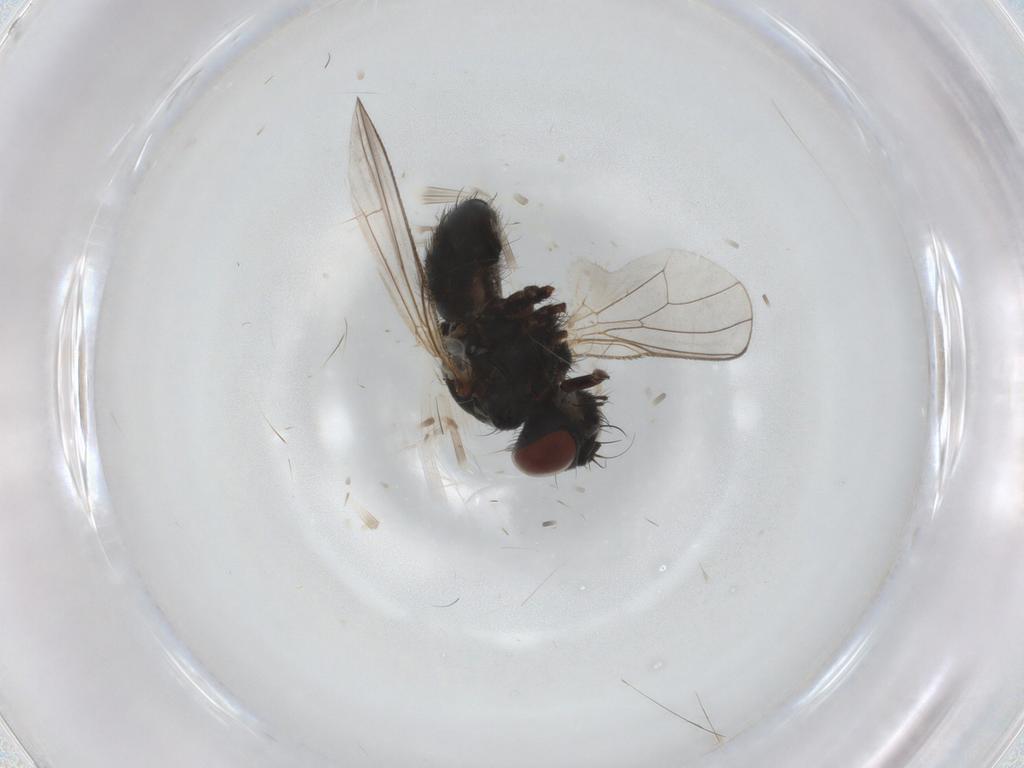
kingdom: Animalia
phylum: Arthropoda
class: Insecta
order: Diptera
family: Muscidae
